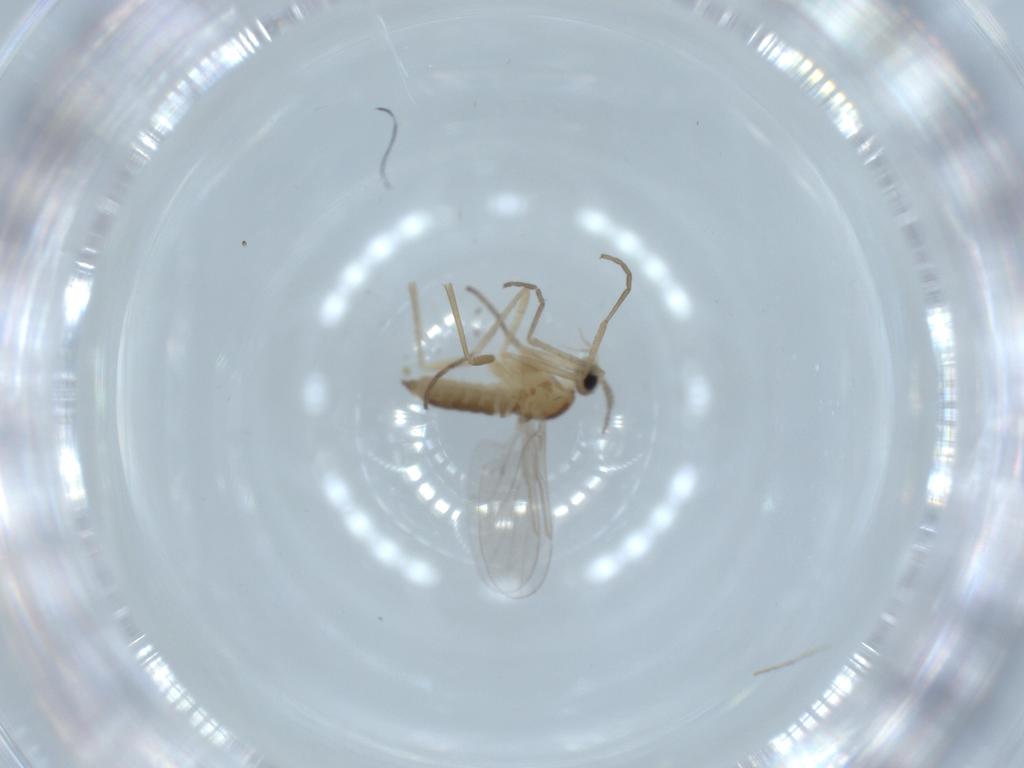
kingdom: Animalia
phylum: Arthropoda
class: Insecta
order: Diptera
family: Cecidomyiidae
